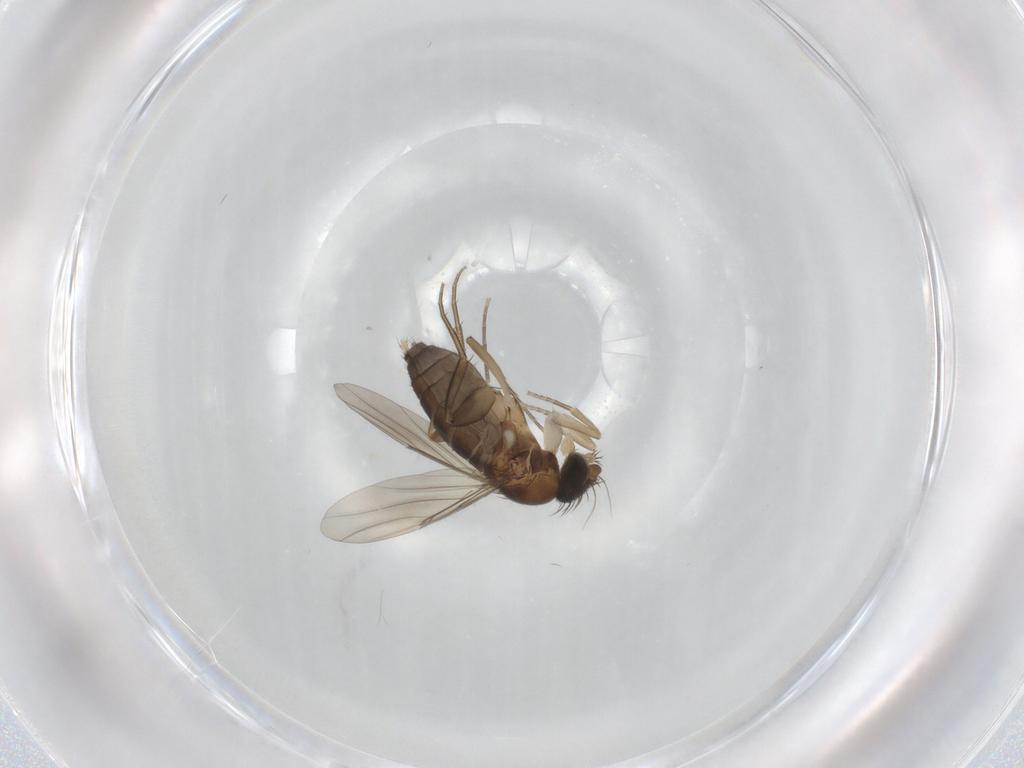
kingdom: Animalia
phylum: Arthropoda
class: Insecta
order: Diptera
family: Phoridae
